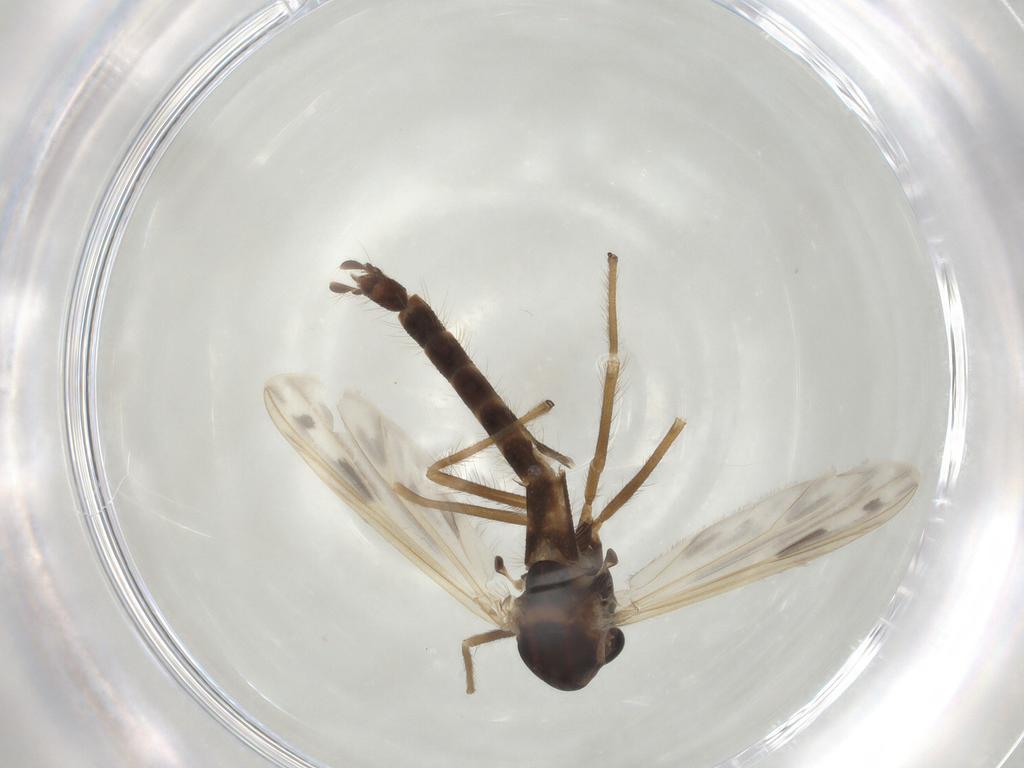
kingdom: Animalia
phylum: Arthropoda
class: Insecta
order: Diptera
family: Chironomidae
